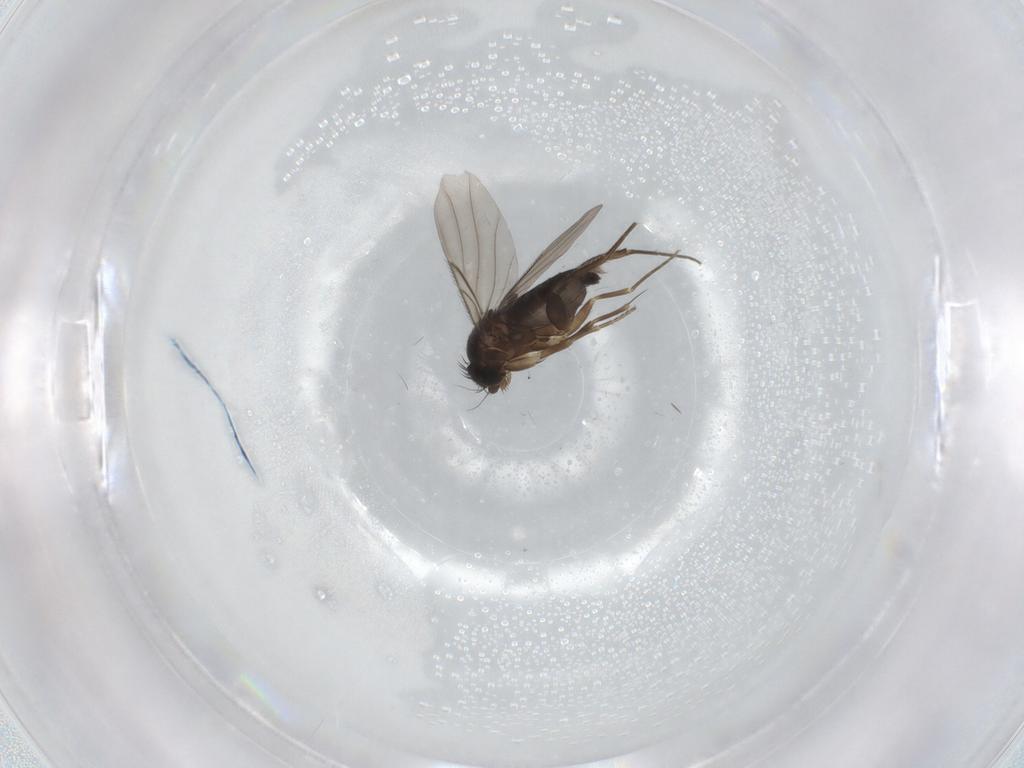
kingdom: Animalia
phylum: Arthropoda
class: Insecta
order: Diptera
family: Phoridae
